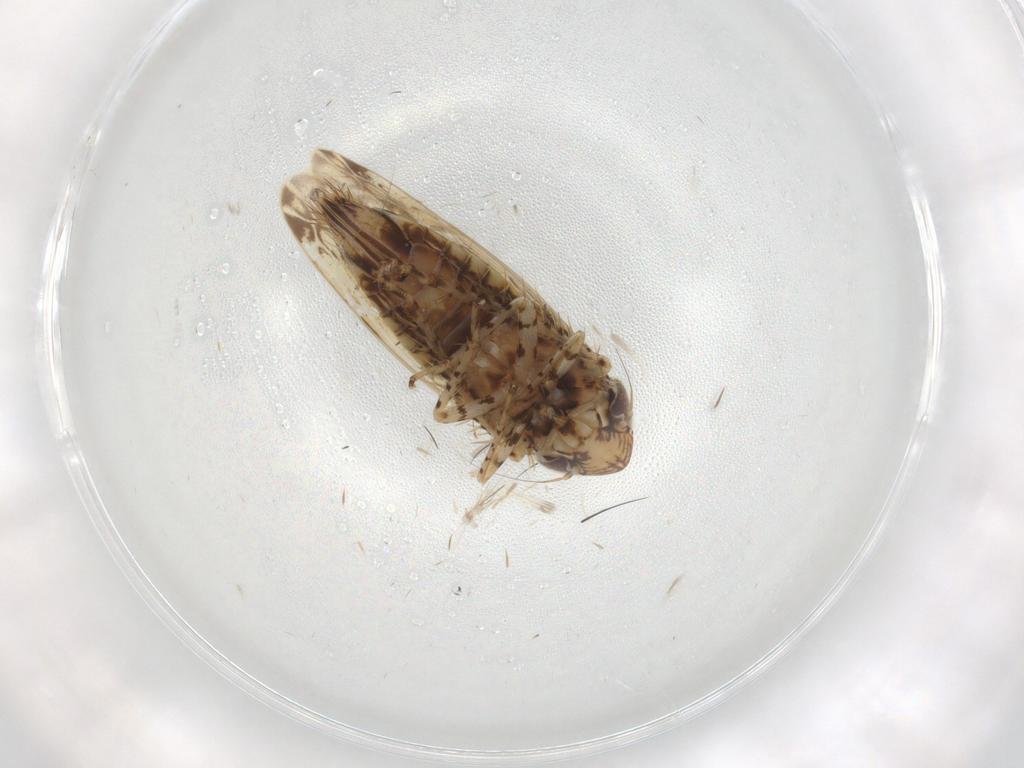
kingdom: Animalia
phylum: Arthropoda
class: Insecta
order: Hemiptera
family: Cicadellidae
